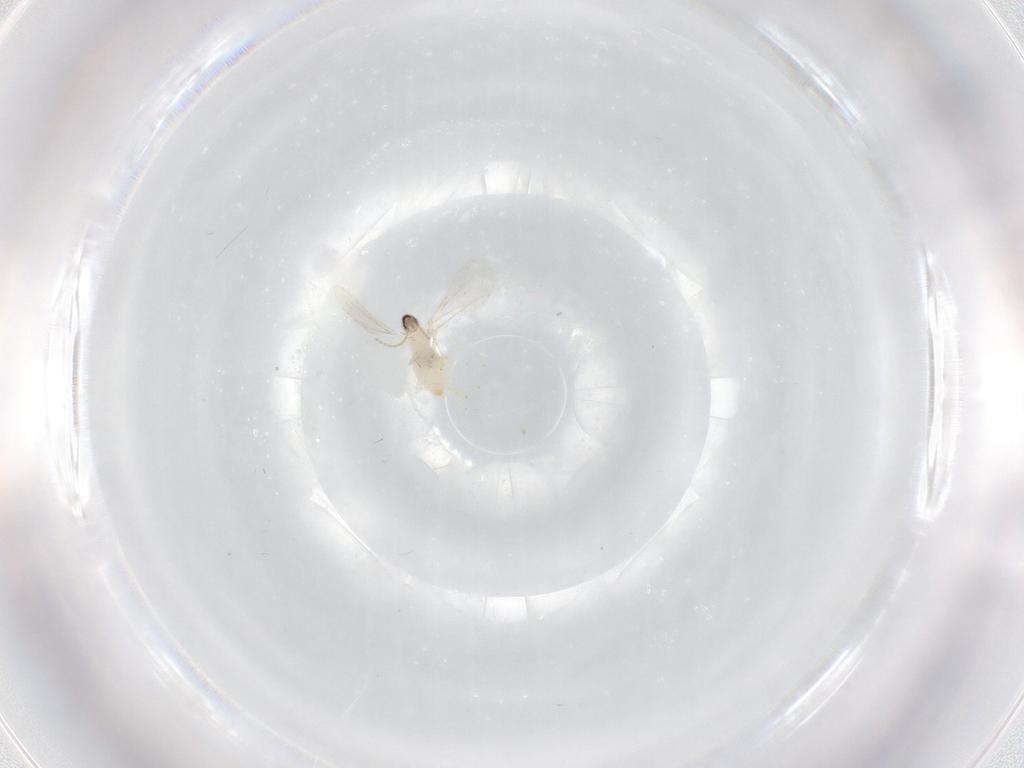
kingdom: Animalia
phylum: Arthropoda
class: Insecta
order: Diptera
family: Cecidomyiidae
